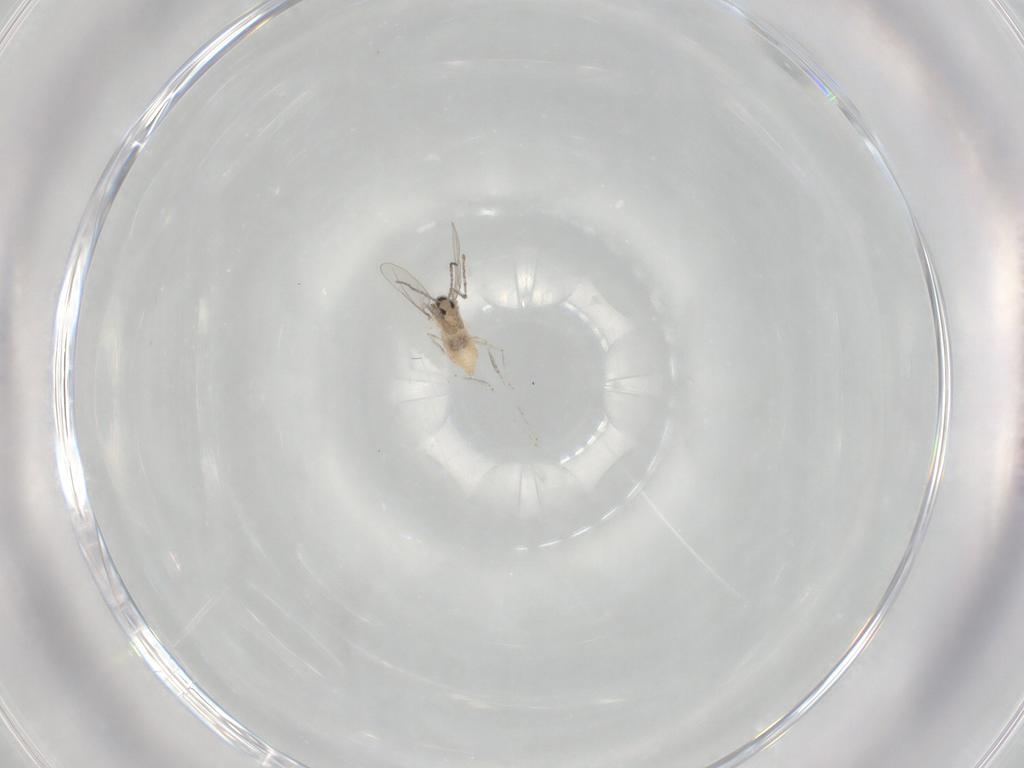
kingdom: Animalia
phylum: Arthropoda
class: Insecta
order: Diptera
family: Cecidomyiidae
